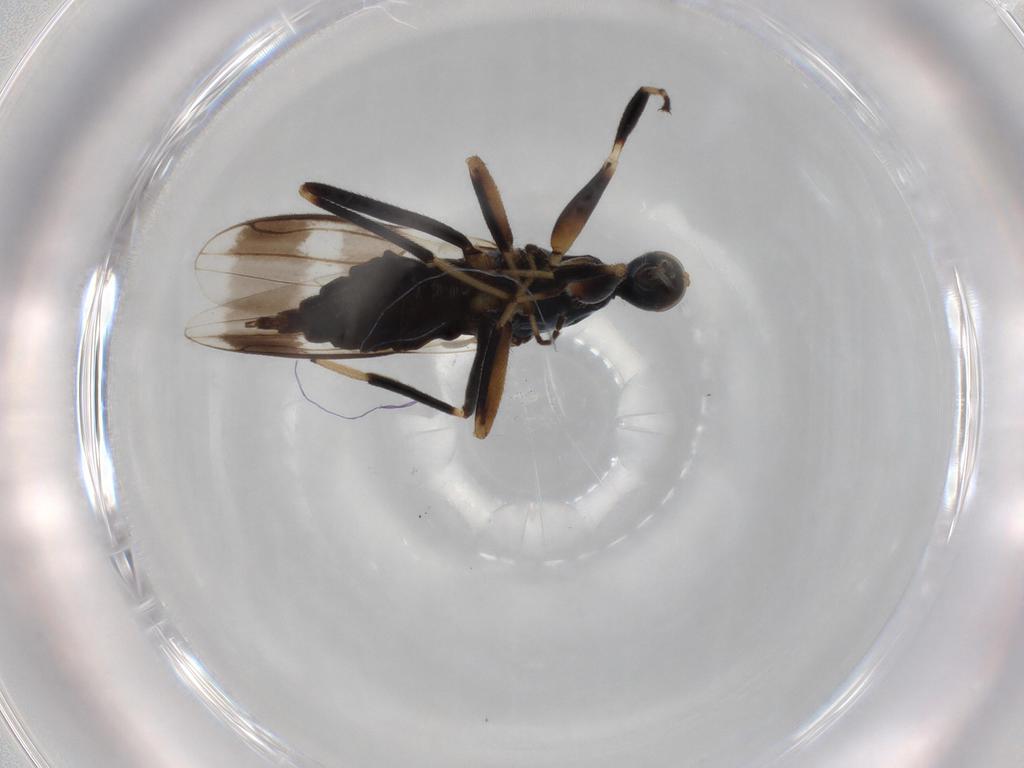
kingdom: Animalia
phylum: Arthropoda
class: Insecta
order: Diptera
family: Hybotidae
